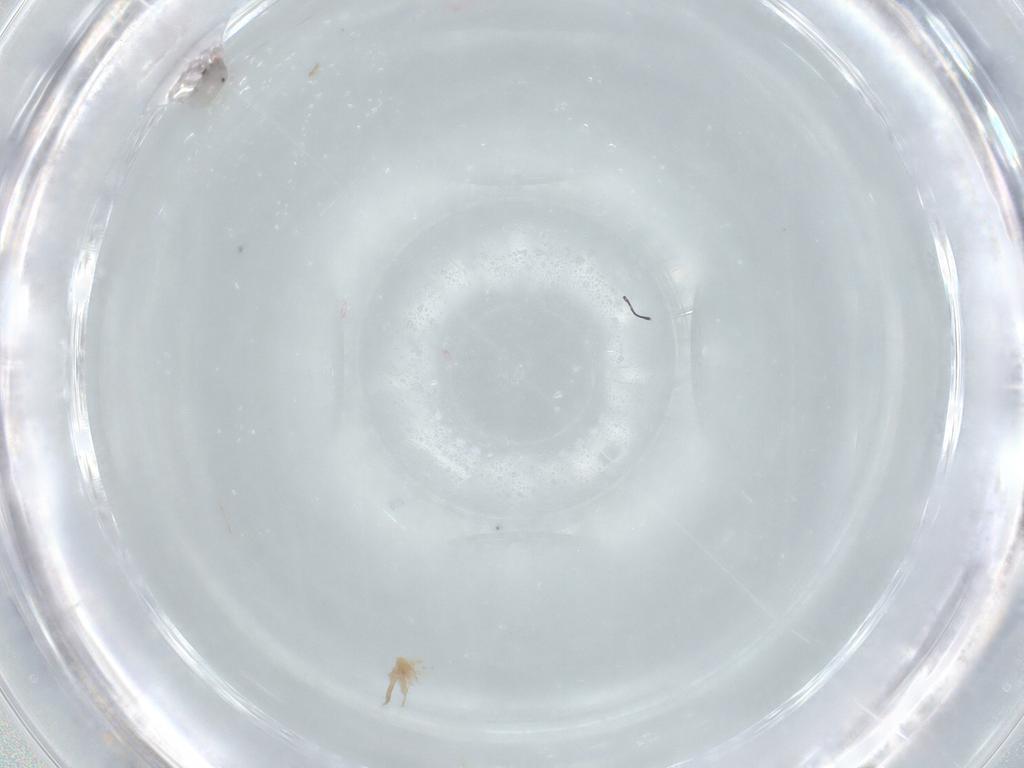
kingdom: Animalia
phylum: Arthropoda
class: Arachnida
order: Trombidiformes
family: Pionidae
